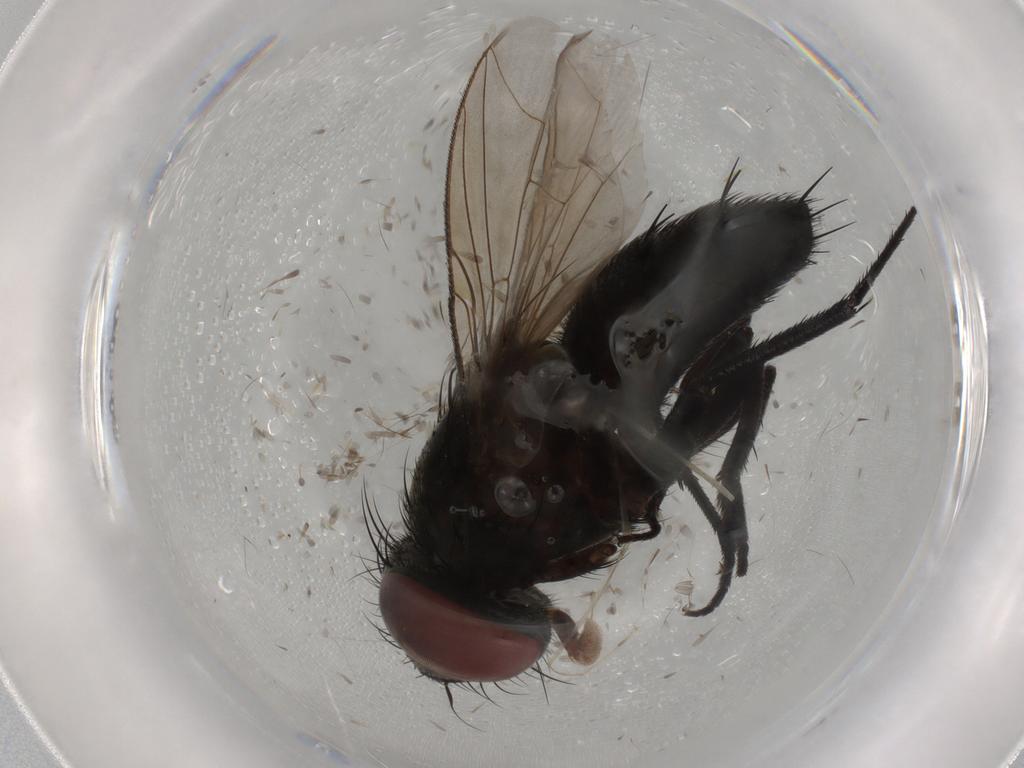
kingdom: Animalia
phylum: Arthropoda
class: Insecta
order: Diptera
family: Sarcophagidae
